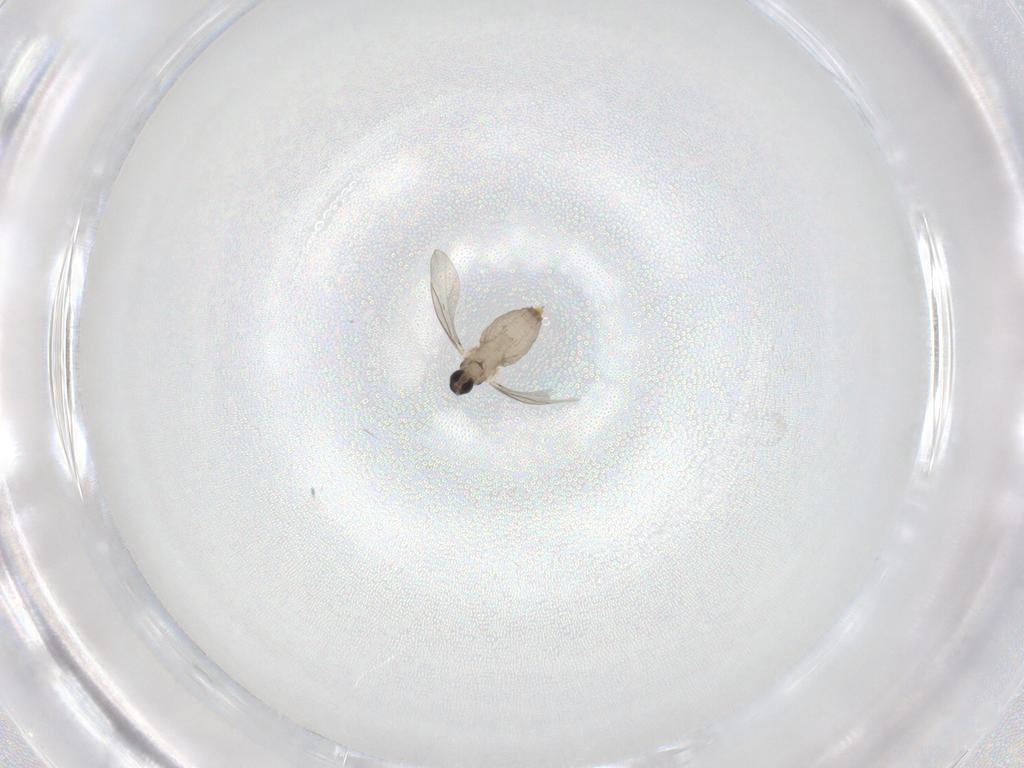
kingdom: Animalia
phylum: Arthropoda
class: Insecta
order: Diptera
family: Cecidomyiidae
